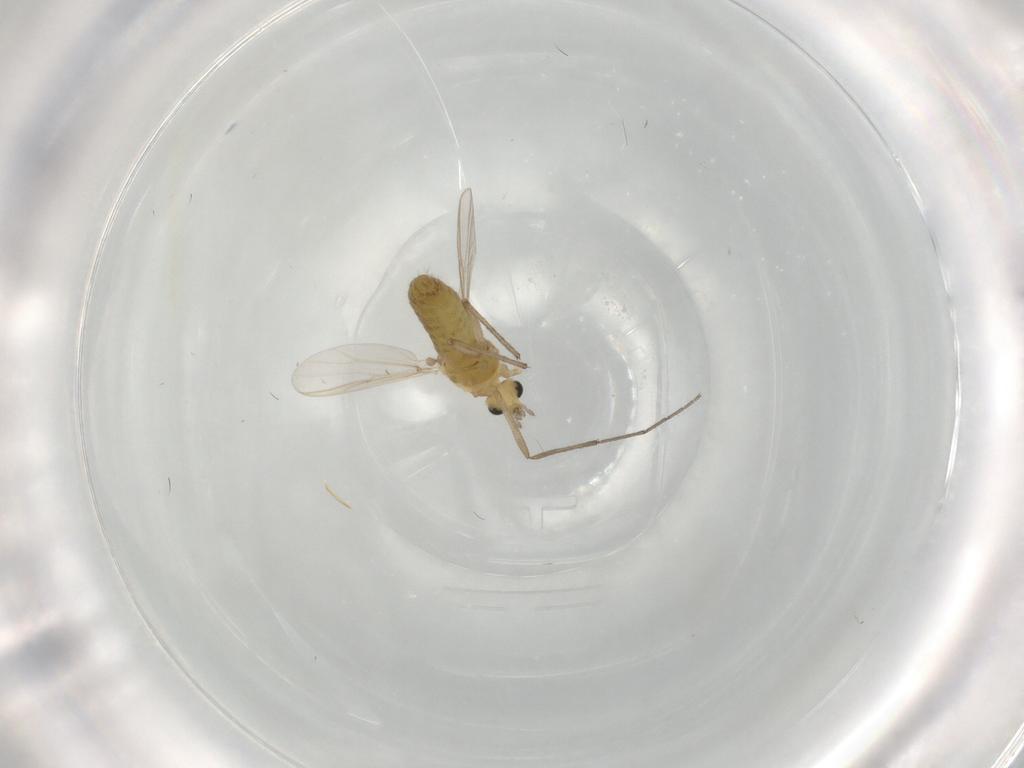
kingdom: Animalia
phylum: Arthropoda
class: Insecta
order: Diptera
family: Chironomidae
